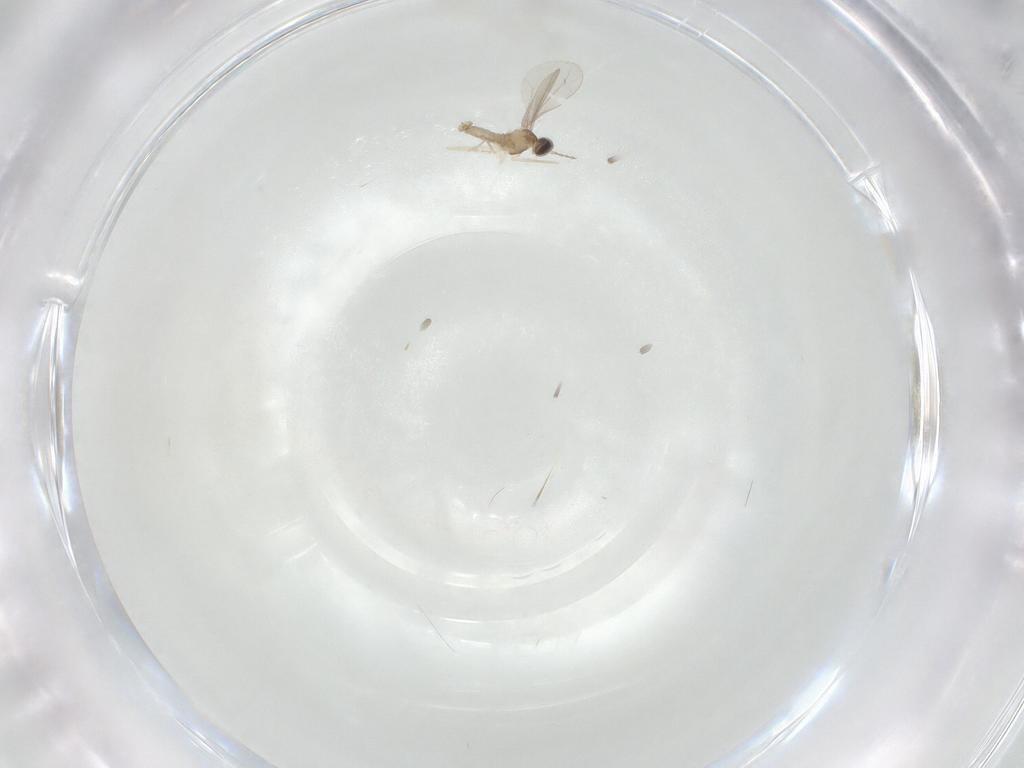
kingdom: Animalia
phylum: Arthropoda
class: Insecta
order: Diptera
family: Cecidomyiidae
